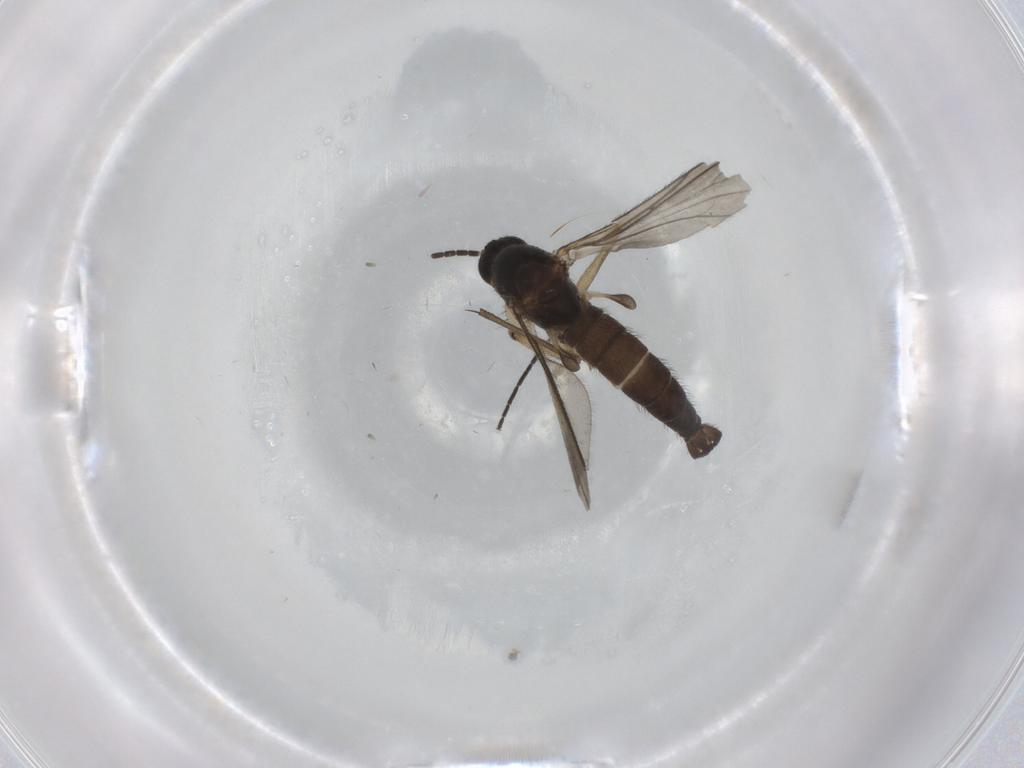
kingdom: Animalia
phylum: Arthropoda
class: Insecta
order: Diptera
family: Sciaridae
